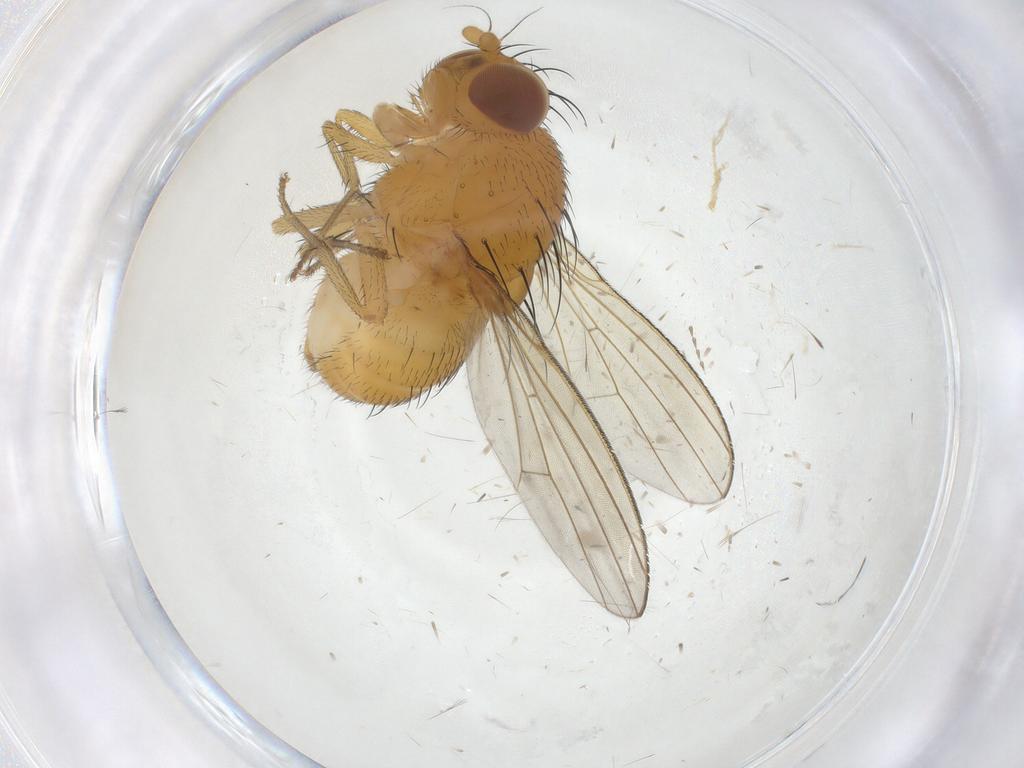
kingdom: Animalia
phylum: Arthropoda
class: Insecta
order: Diptera
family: Lauxaniidae
